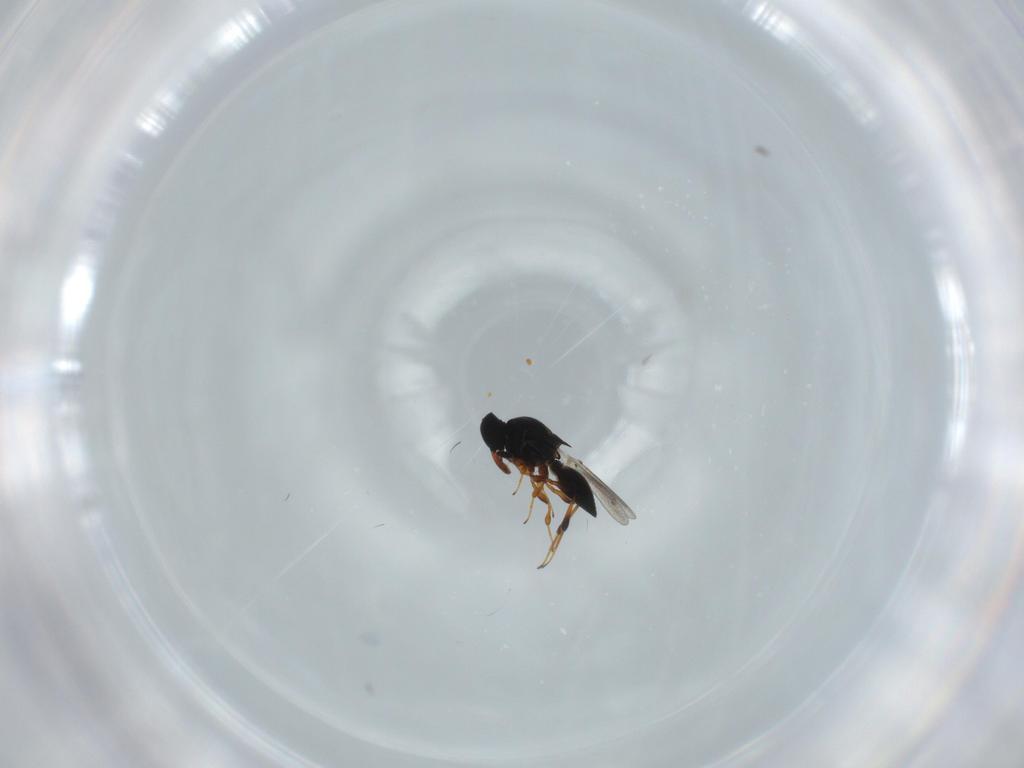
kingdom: Animalia
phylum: Arthropoda
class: Insecta
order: Hymenoptera
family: Platygastridae
